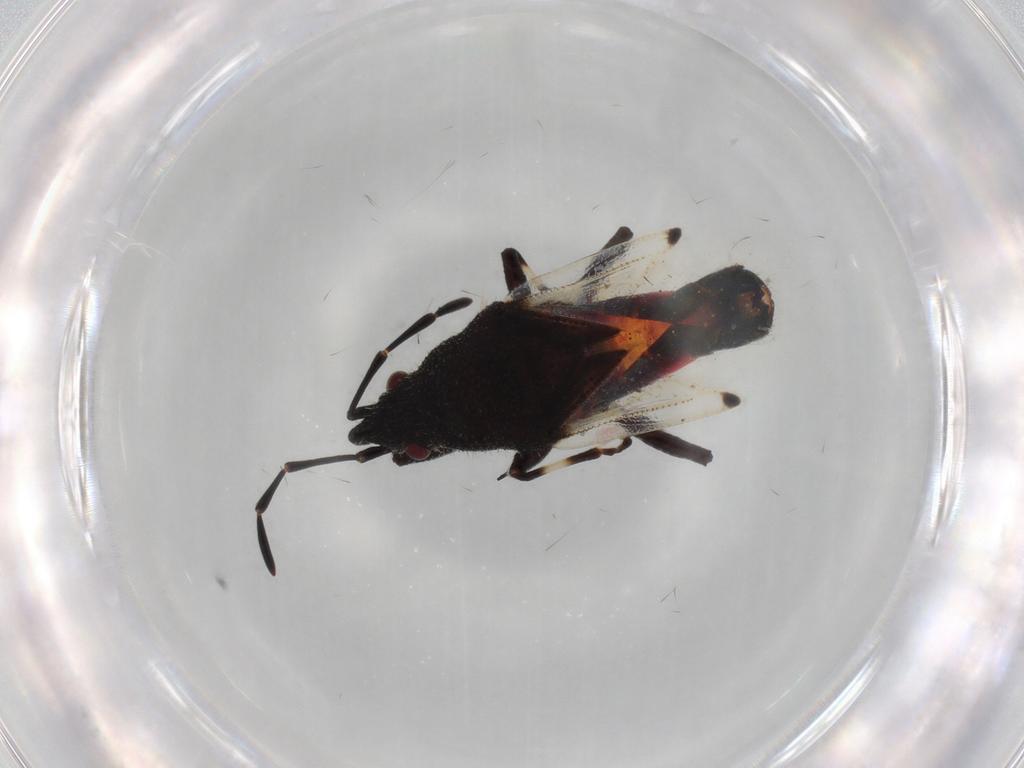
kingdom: Animalia
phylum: Arthropoda
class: Insecta
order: Hemiptera
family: Oxycarenidae
